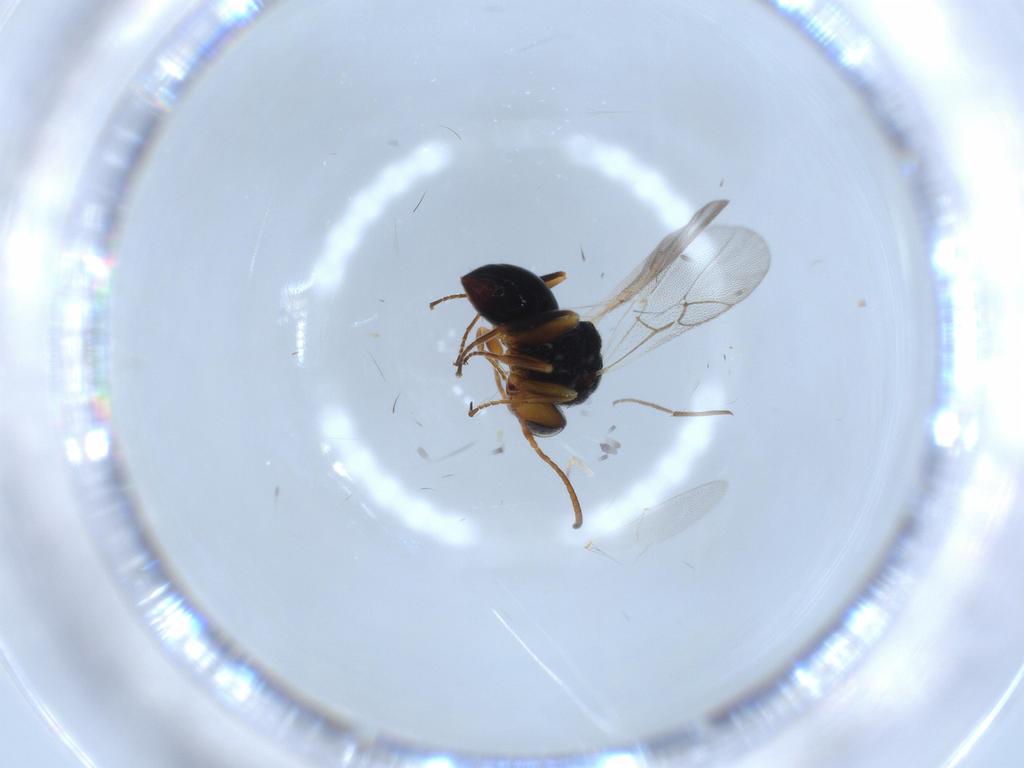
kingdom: Animalia
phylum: Arthropoda
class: Insecta
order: Hymenoptera
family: Cynipidae
